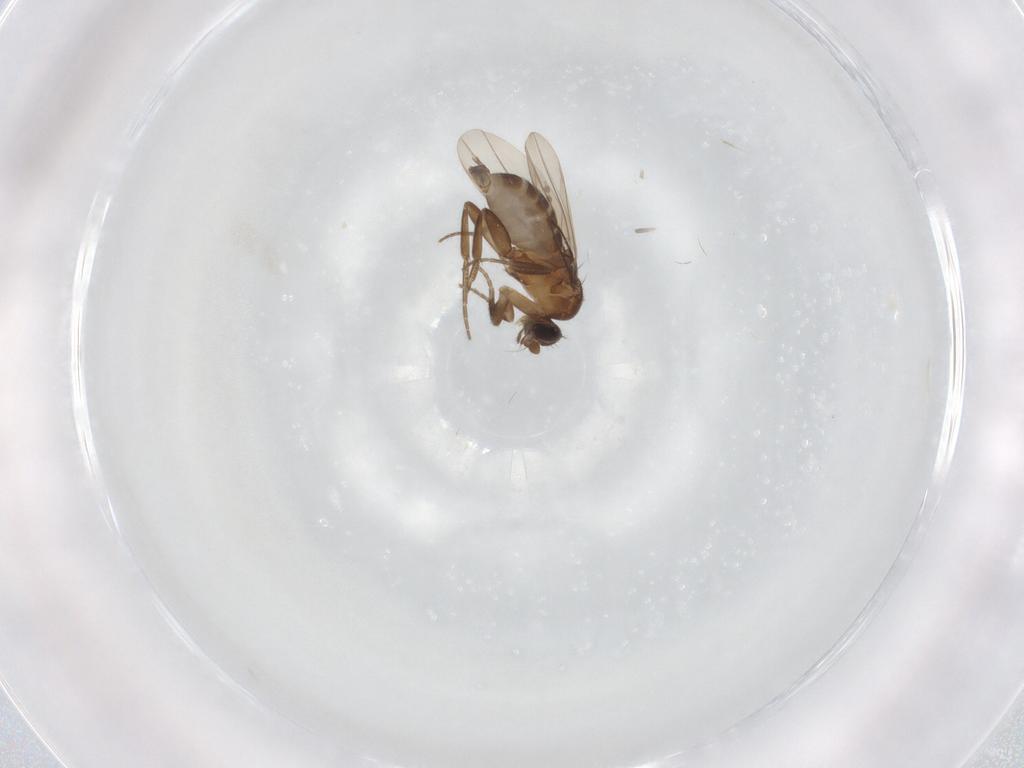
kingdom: Animalia
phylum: Arthropoda
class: Insecta
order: Diptera
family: Phoridae
